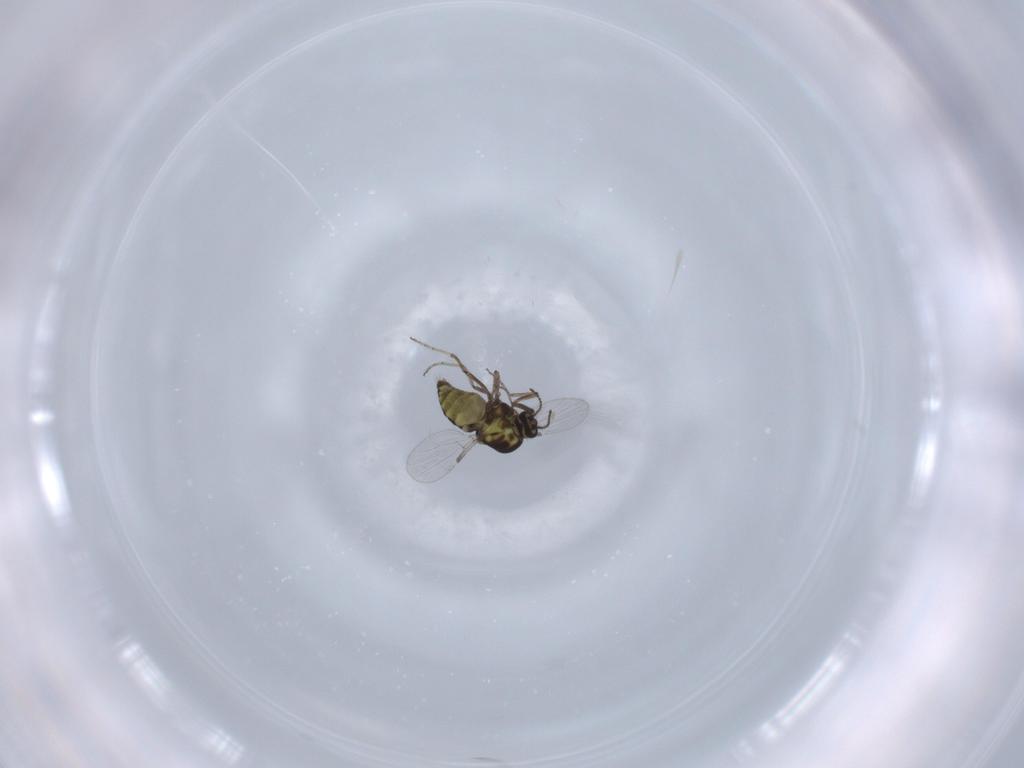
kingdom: Animalia
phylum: Arthropoda
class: Insecta
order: Diptera
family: Ceratopogonidae
